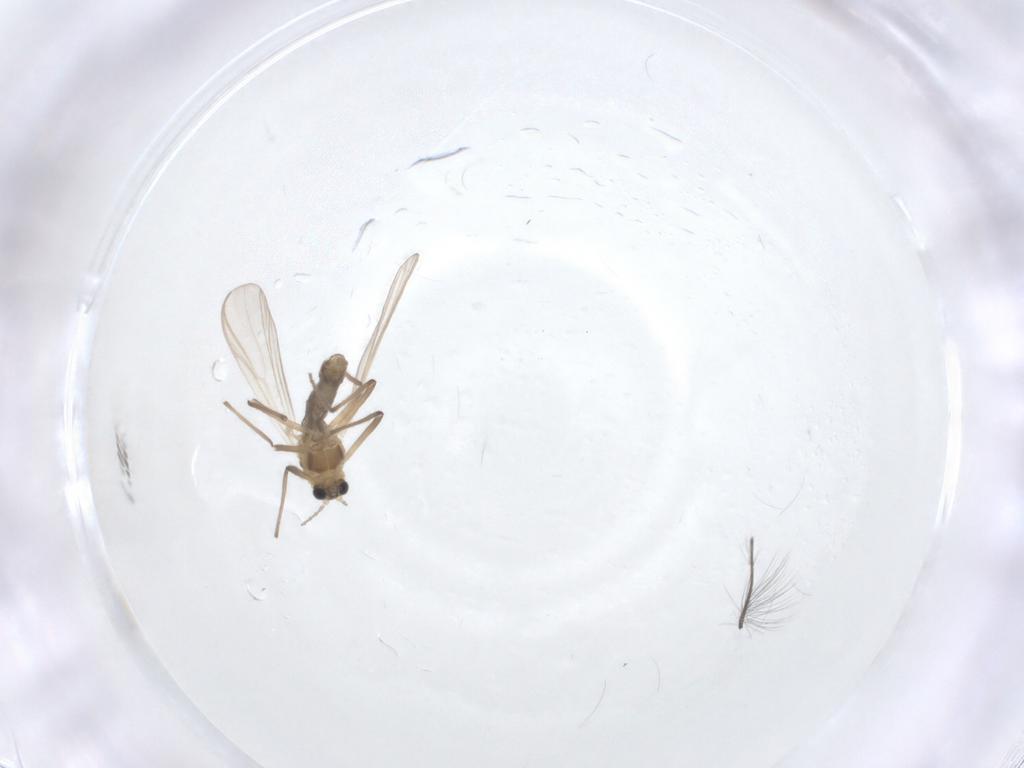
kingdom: Animalia
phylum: Arthropoda
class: Insecta
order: Diptera
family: Chironomidae
